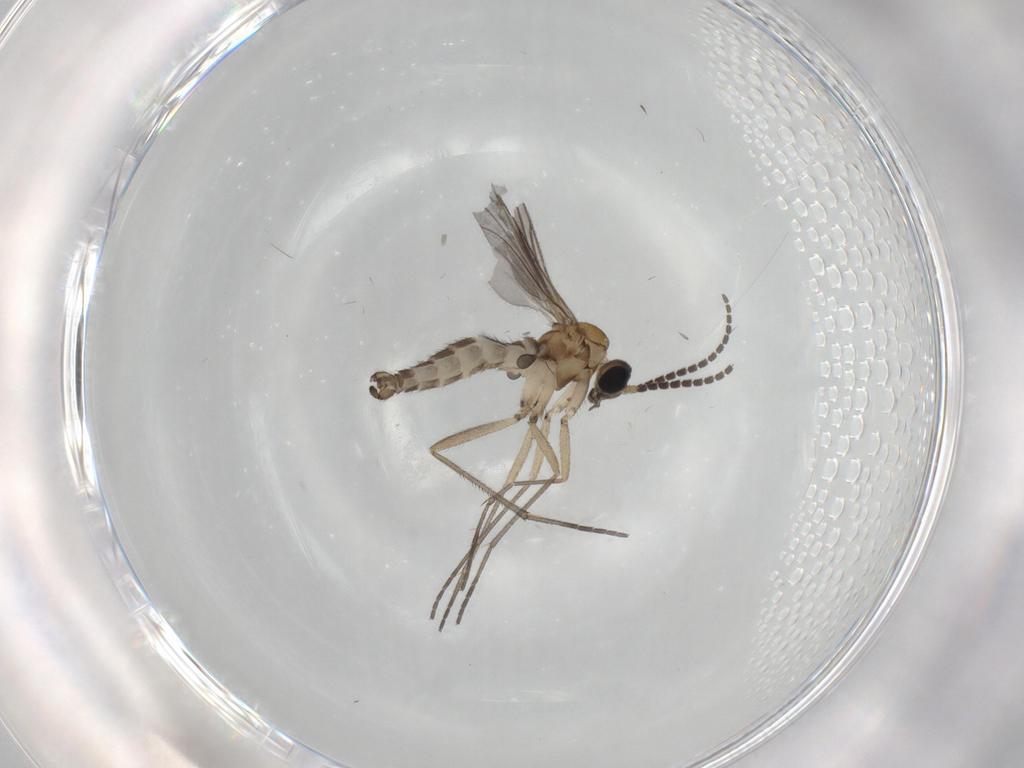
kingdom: Animalia
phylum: Arthropoda
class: Insecta
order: Diptera
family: Sciaridae
